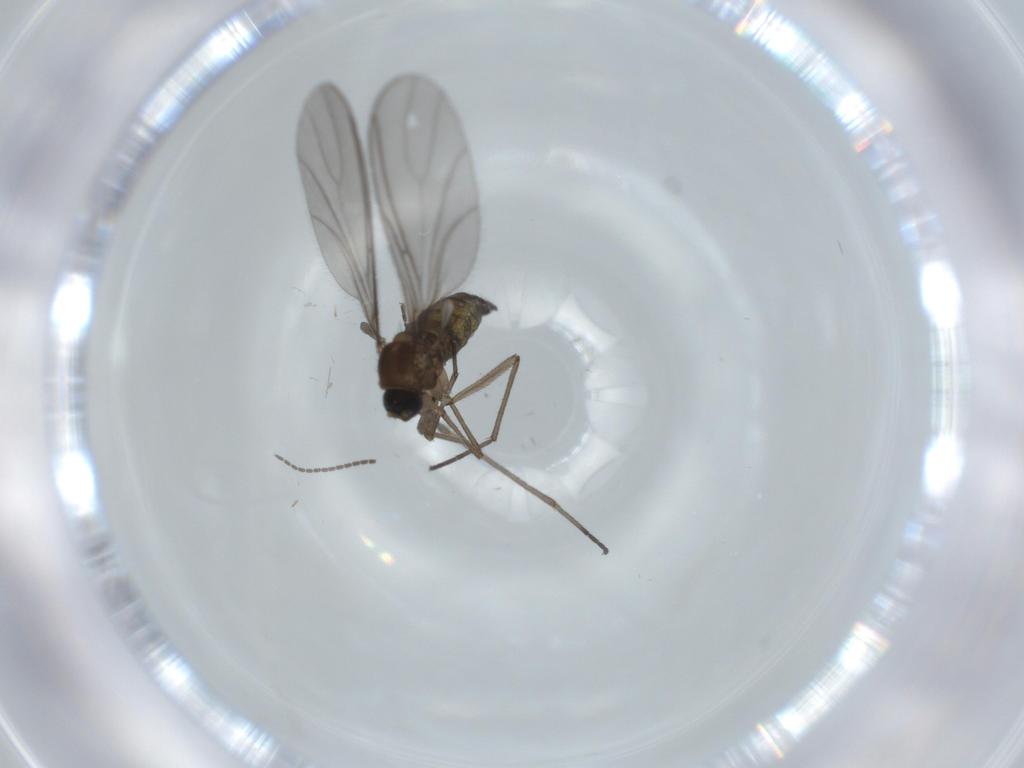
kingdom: Animalia
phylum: Arthropoda
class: Insecta
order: Diptera
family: Sciaridae
